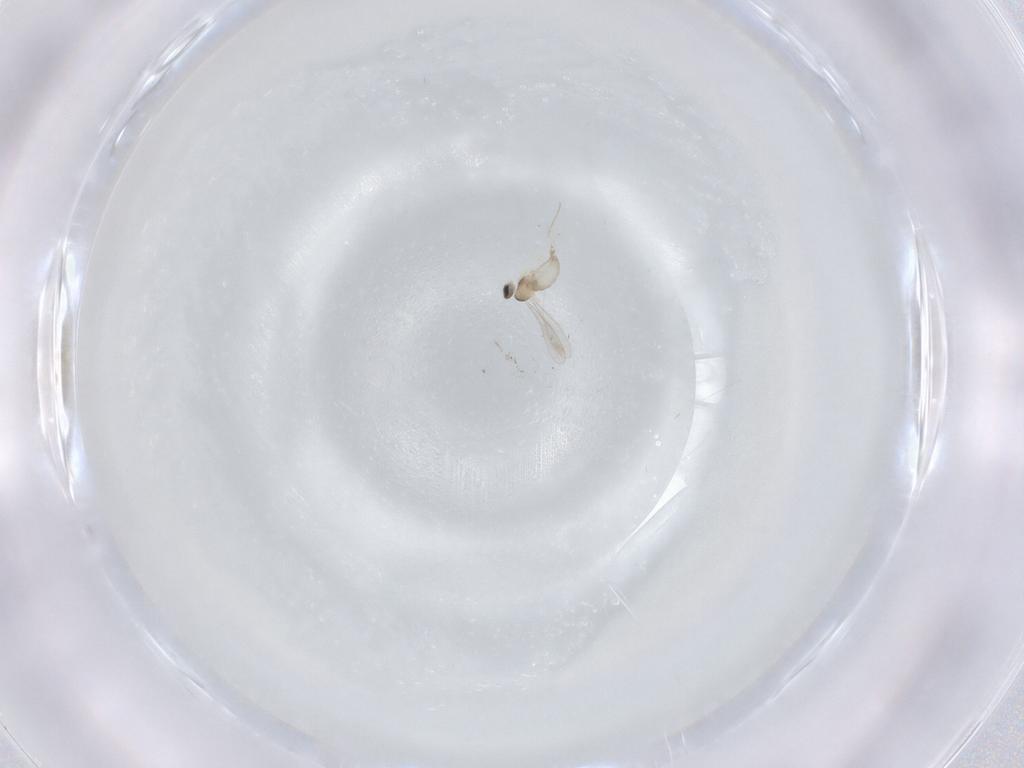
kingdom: Animalia
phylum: Arthropoda
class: Insecta
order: Diptera
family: Cecidomyiidae
